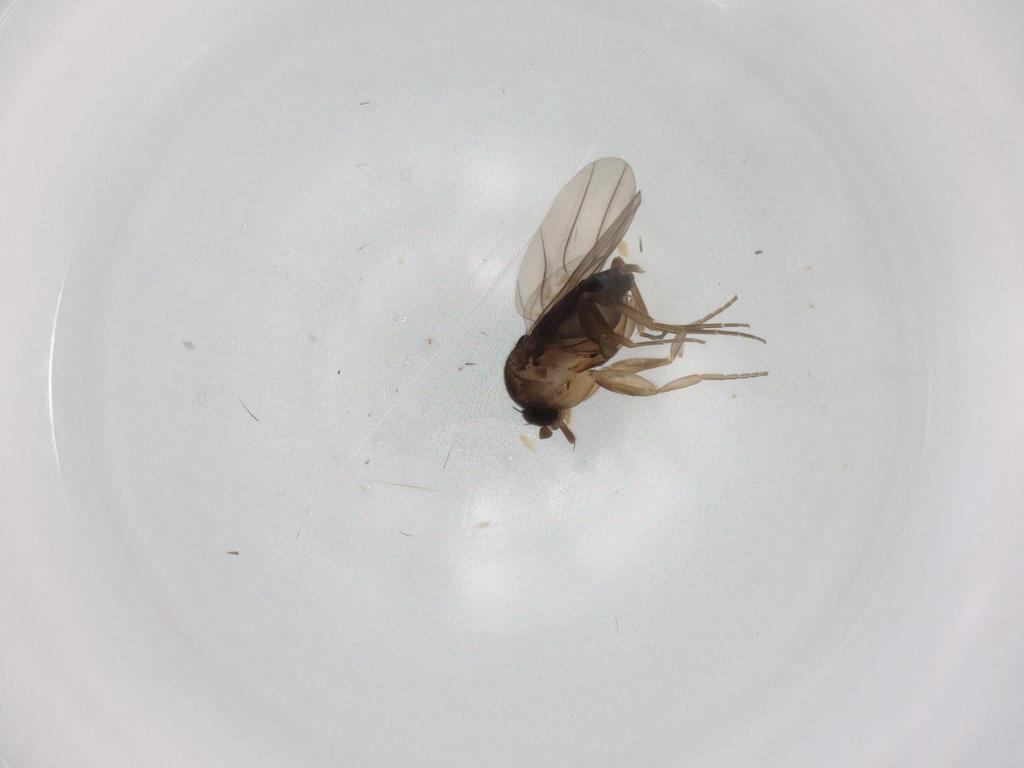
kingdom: Animalia
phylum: Arthropoda
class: Insecta
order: Diptera
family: Phoridae
